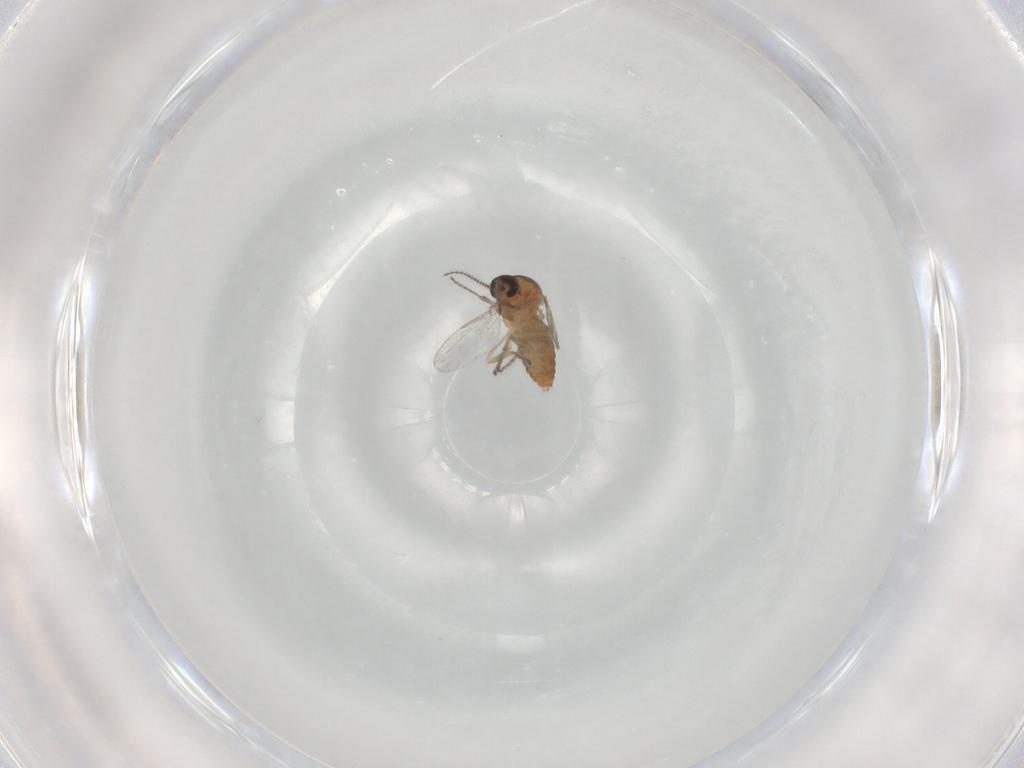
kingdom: Animalia
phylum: Arthropoda
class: Insecta
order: Diptera
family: Ceratopogonidae
